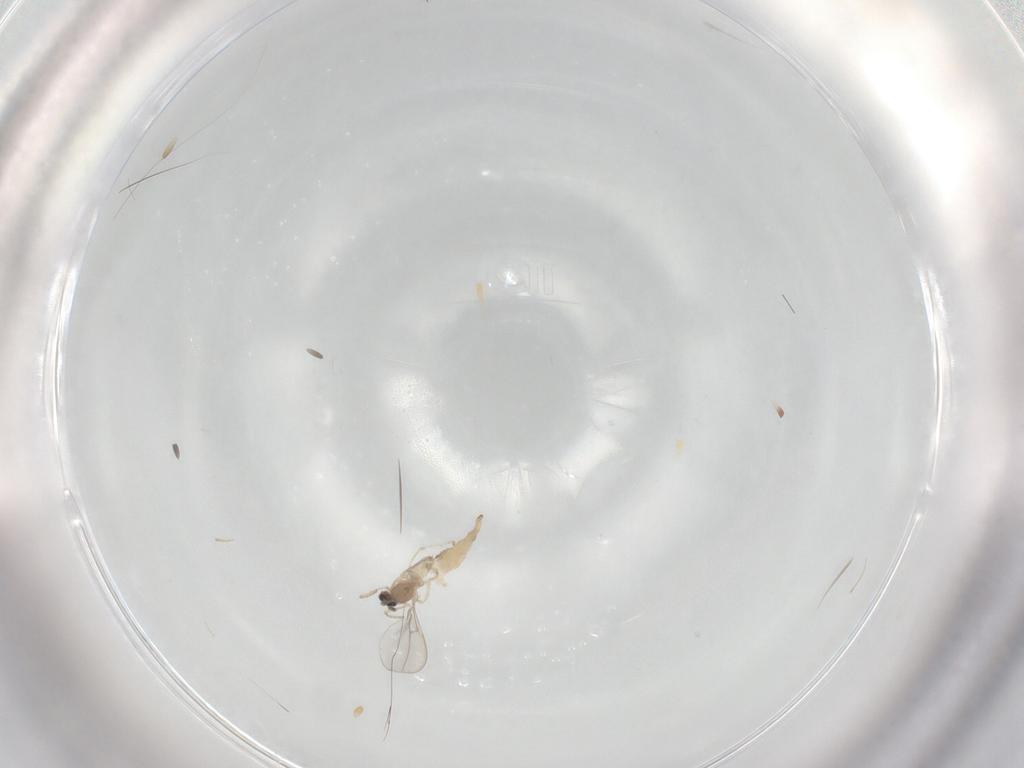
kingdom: Animalia
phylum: Arthropoda
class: Insecta
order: Diptera
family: Cecidomyiidae
